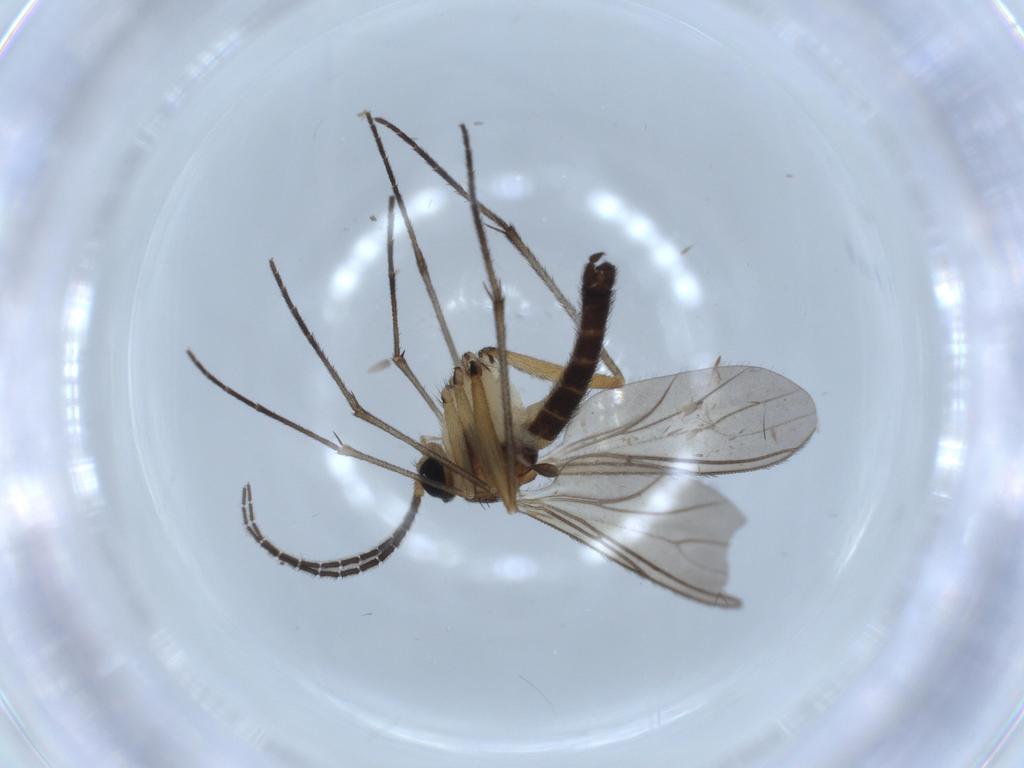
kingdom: Animalia
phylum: Arthropoda
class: Insecta
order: Diptera
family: Sciaridae
